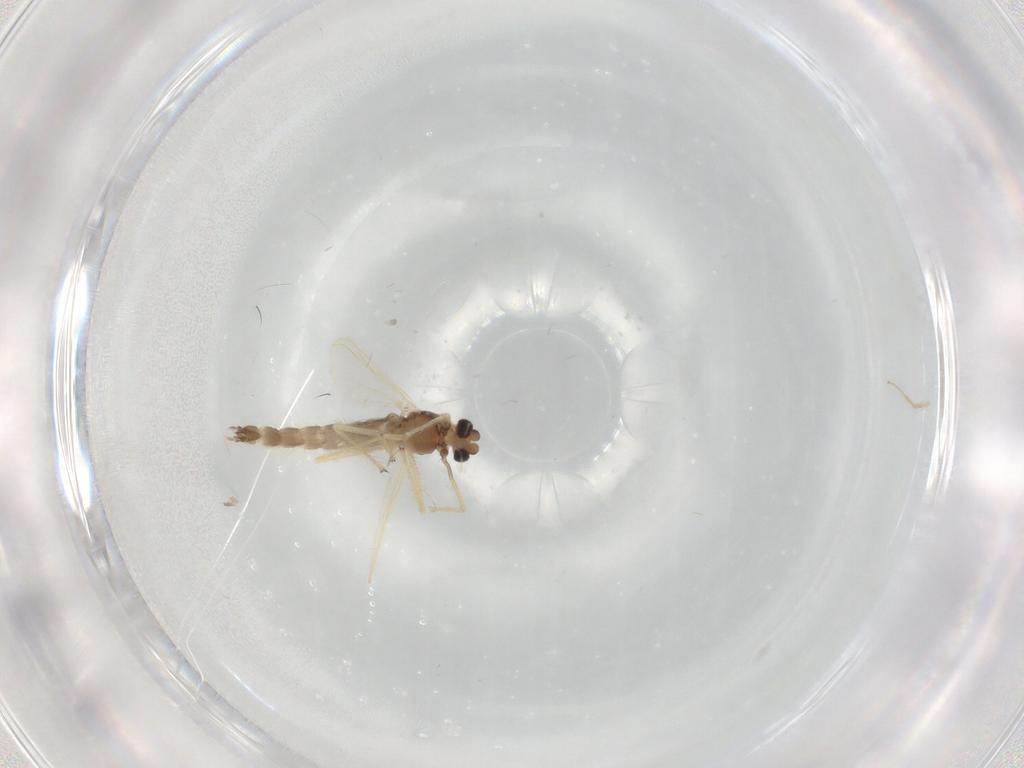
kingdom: Animalia
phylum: Arthropoda
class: Insecta
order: Diptera
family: Chironomidae
